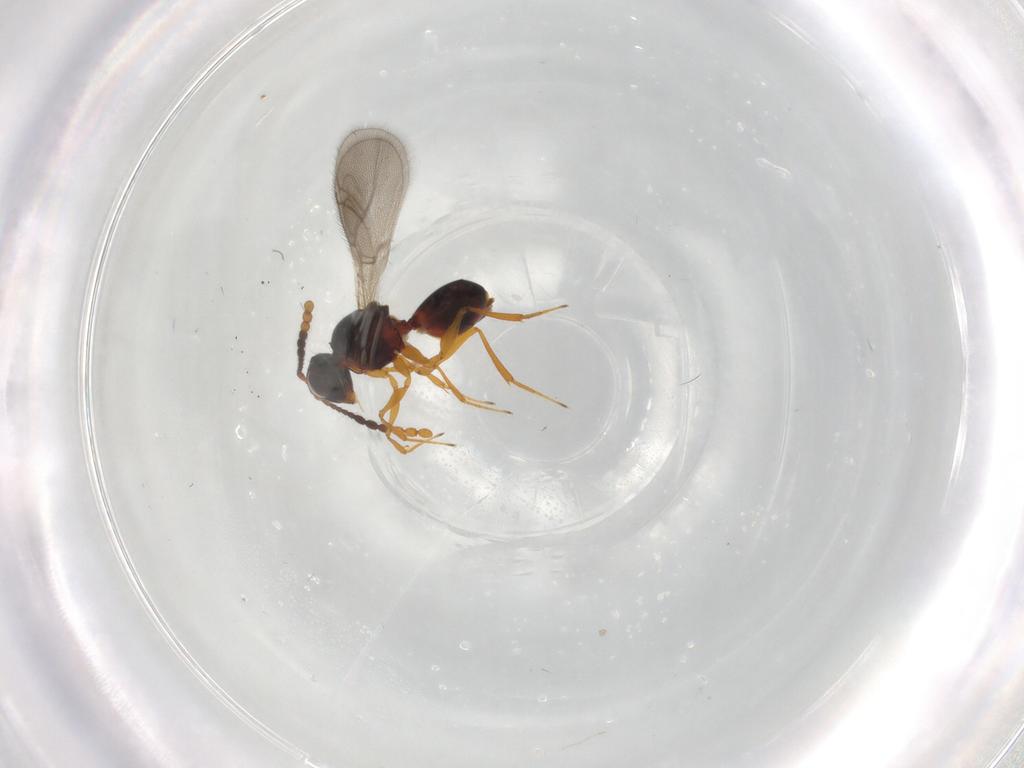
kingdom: Animalia
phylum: Arthropoda
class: Insecta
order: Hymenoptera
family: Figitidae
